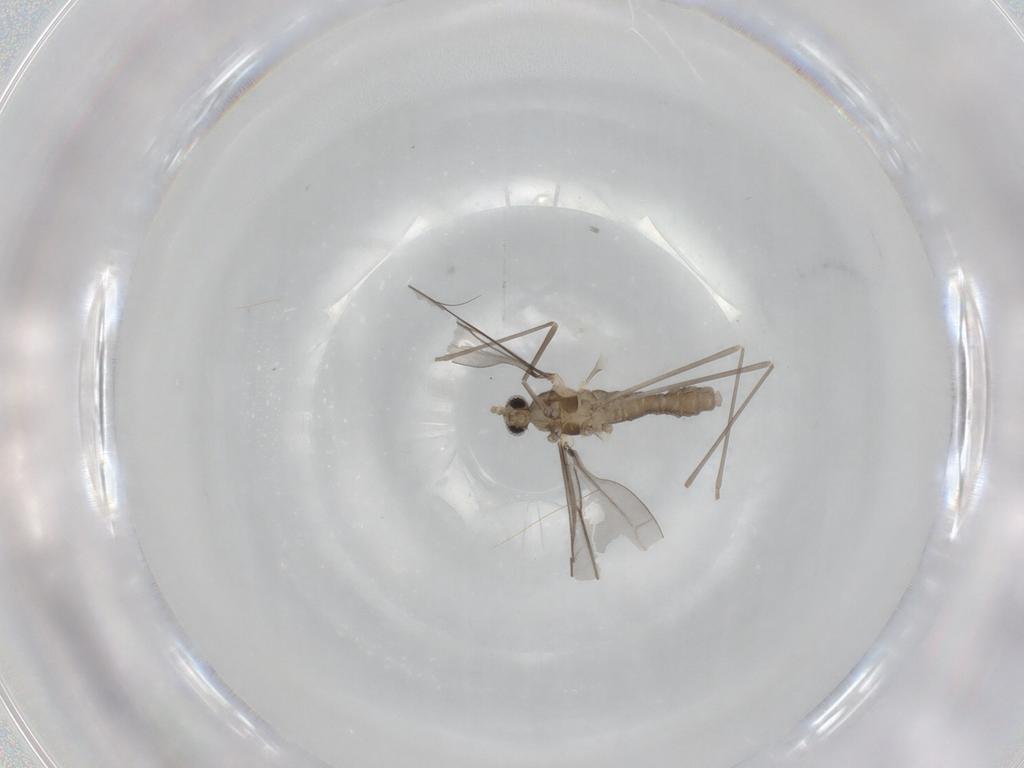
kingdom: Animalia
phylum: Arthropoda
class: Insecta
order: Diptera
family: Cecidomyiidae
